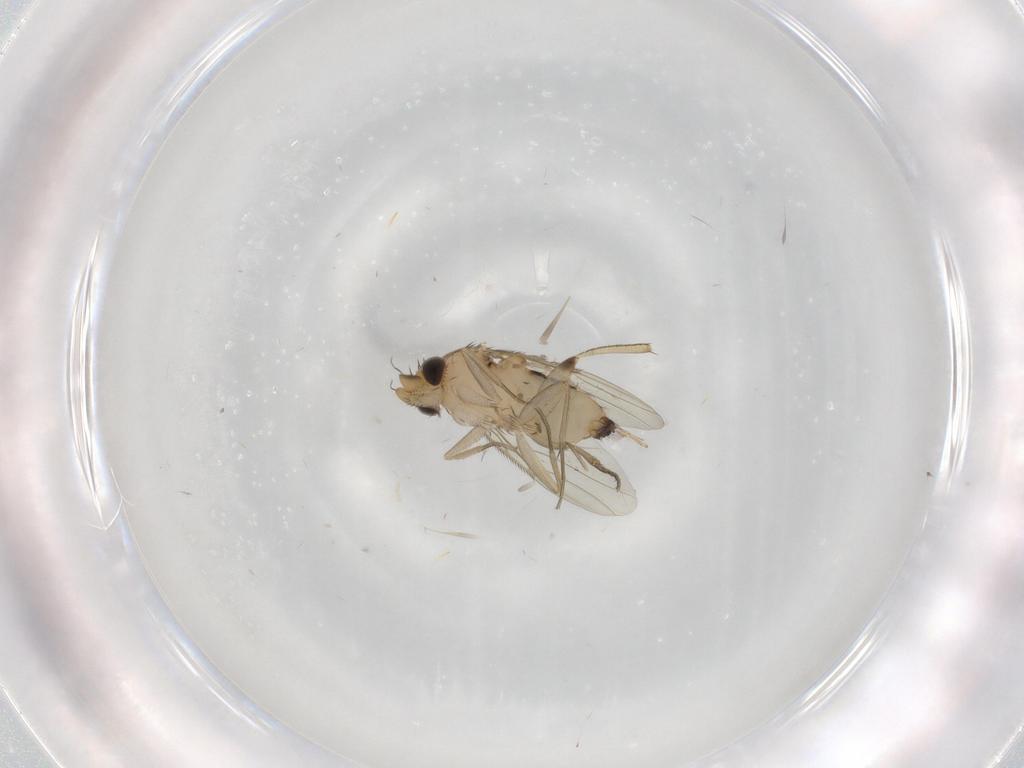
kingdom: Animalia
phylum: Arthropoda
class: Insecta
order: Diptera
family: Phoridae
